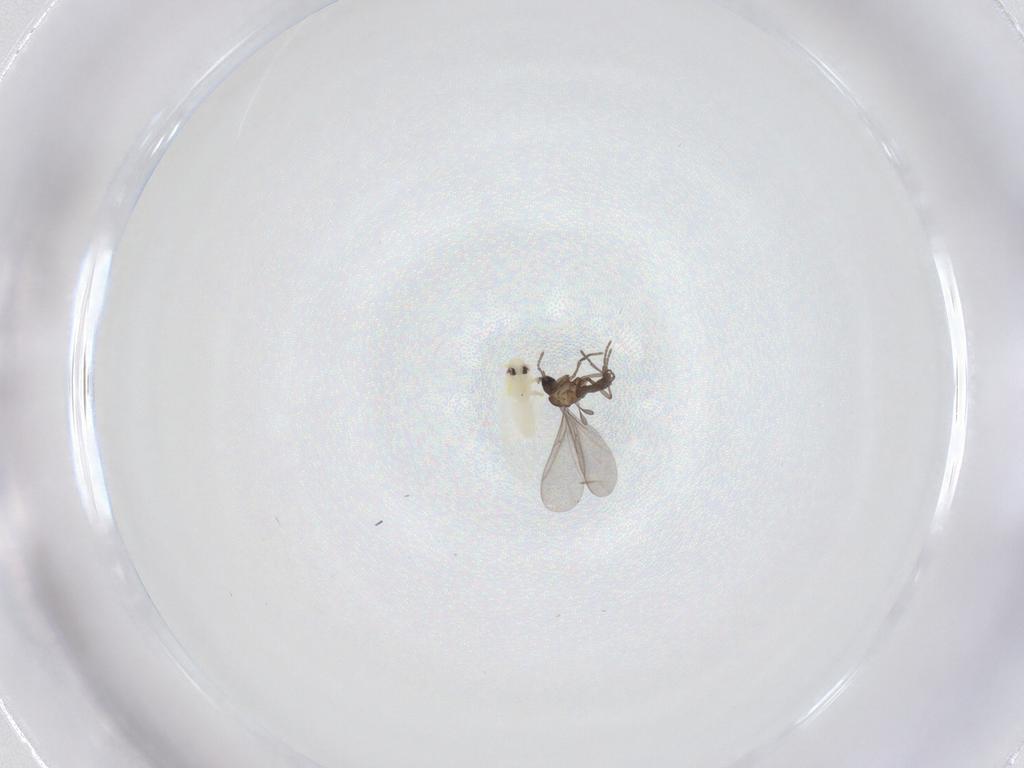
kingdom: Animalia
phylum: Arthropoda
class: Insecta
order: Diptera
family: Sciaridae
